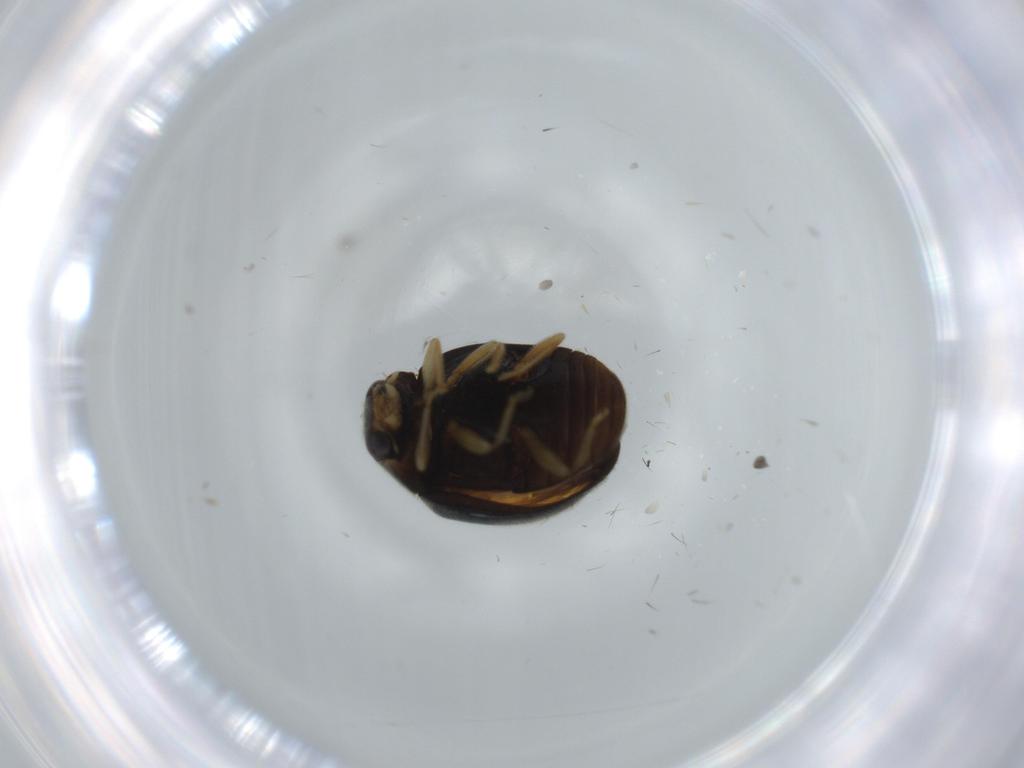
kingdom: Animalia
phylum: Arthropoda
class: Insecta
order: Coleoptera
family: Coccinellidae
